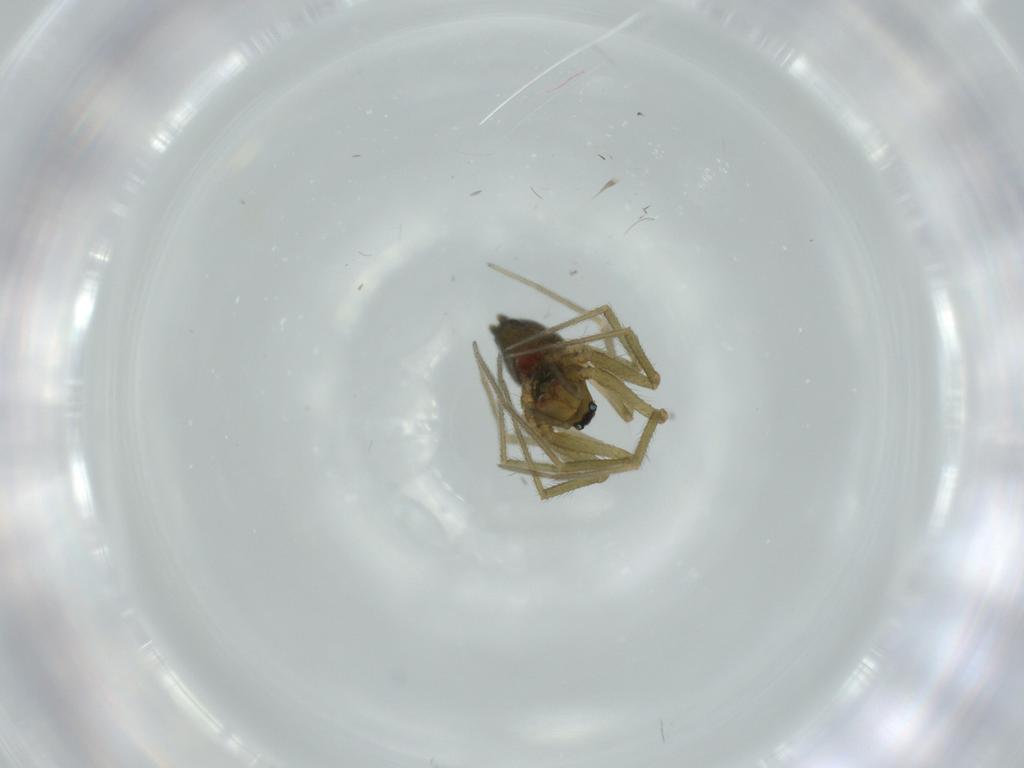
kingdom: Animalia
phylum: Arthropoda
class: Arachnida
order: Araneae
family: Linyphiidae
